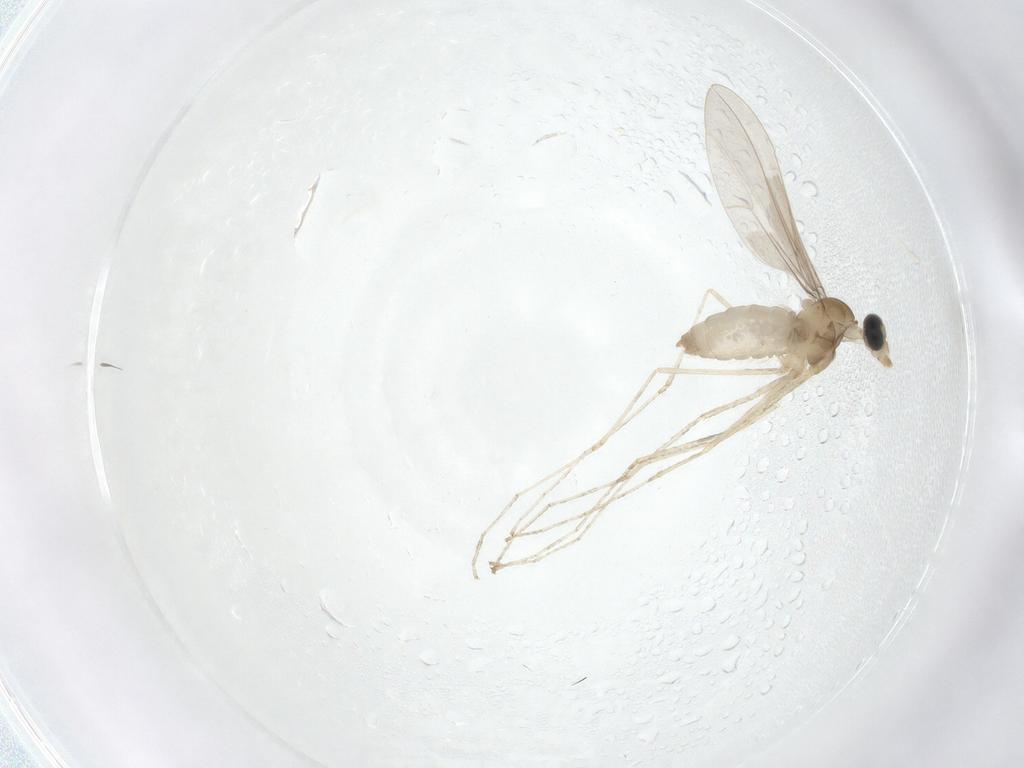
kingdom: Animalia
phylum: Arthropoda
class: Insecta
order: Diptera
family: Cecidomyiidae
